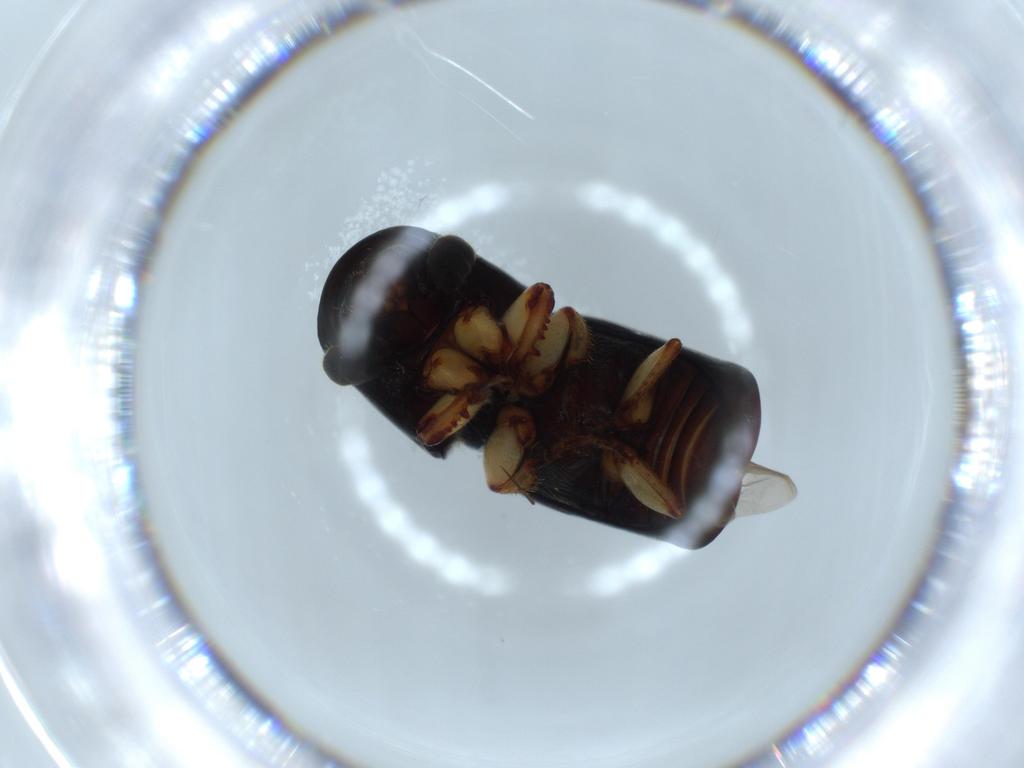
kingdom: Animalia
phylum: Arthropoda
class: Insecta
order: Coleoptera
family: Curculionidae
